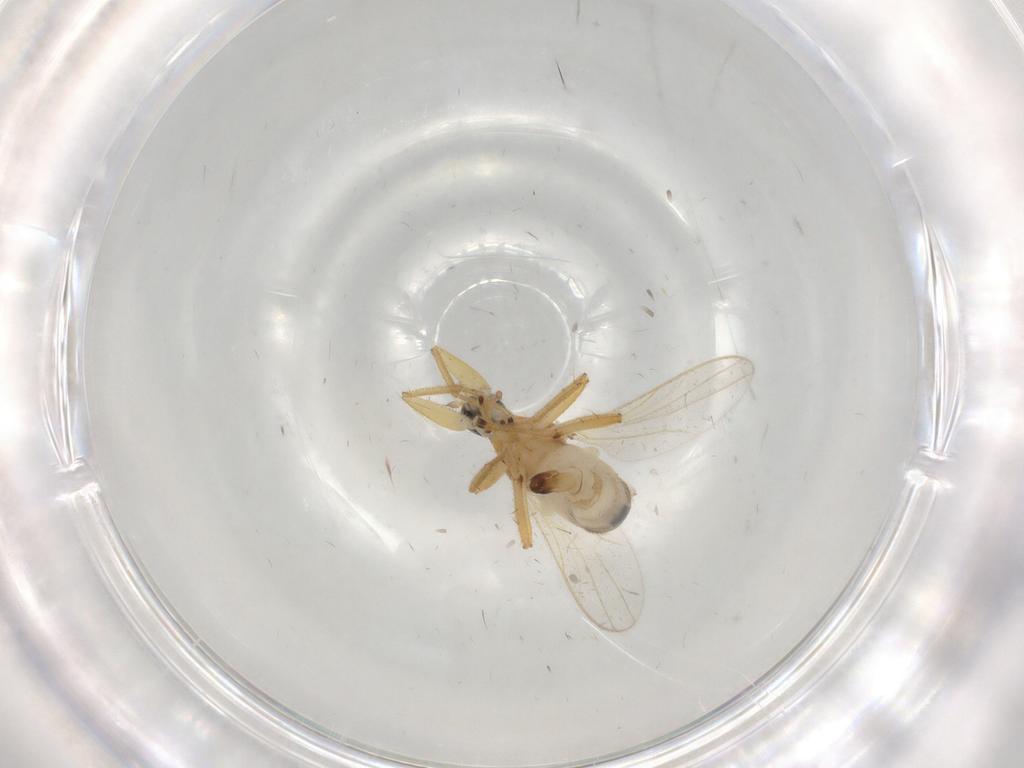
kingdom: Animalia
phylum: Arthropoda
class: Insecta
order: Diptera
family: Hybotidae
